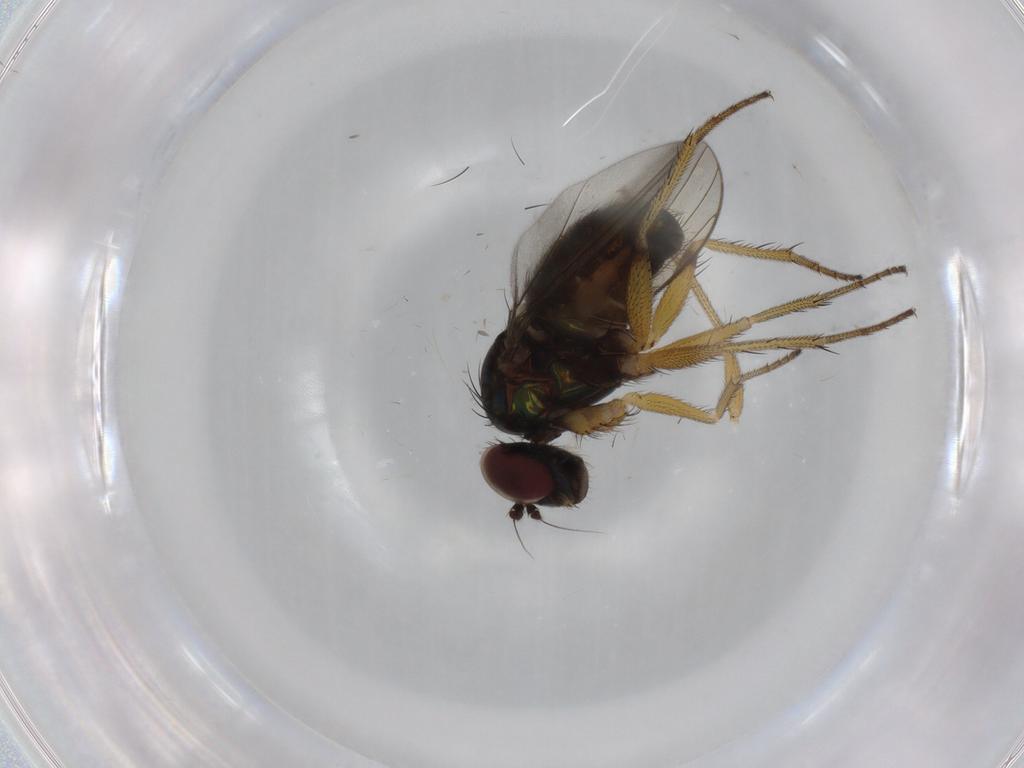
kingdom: Animalia
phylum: Arthropoda
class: Insecta
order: Diptera
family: Dolichopodidae
